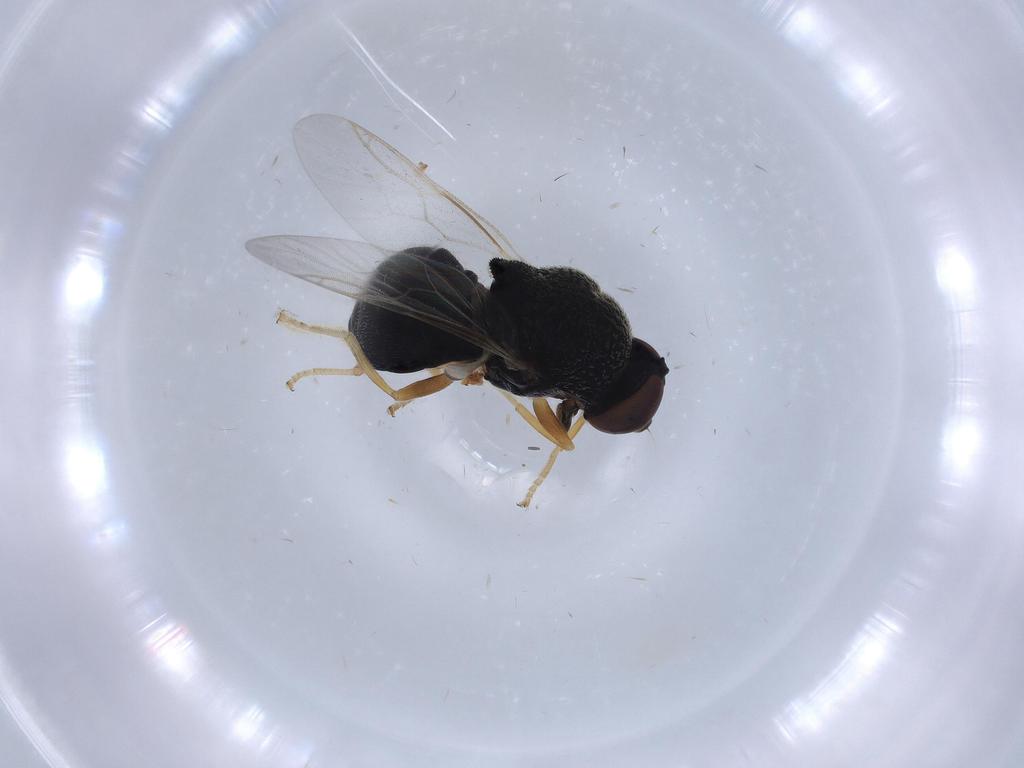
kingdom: Animalia
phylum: Arthropoda
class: Insecta
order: Diptera
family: Stratiomyidae
